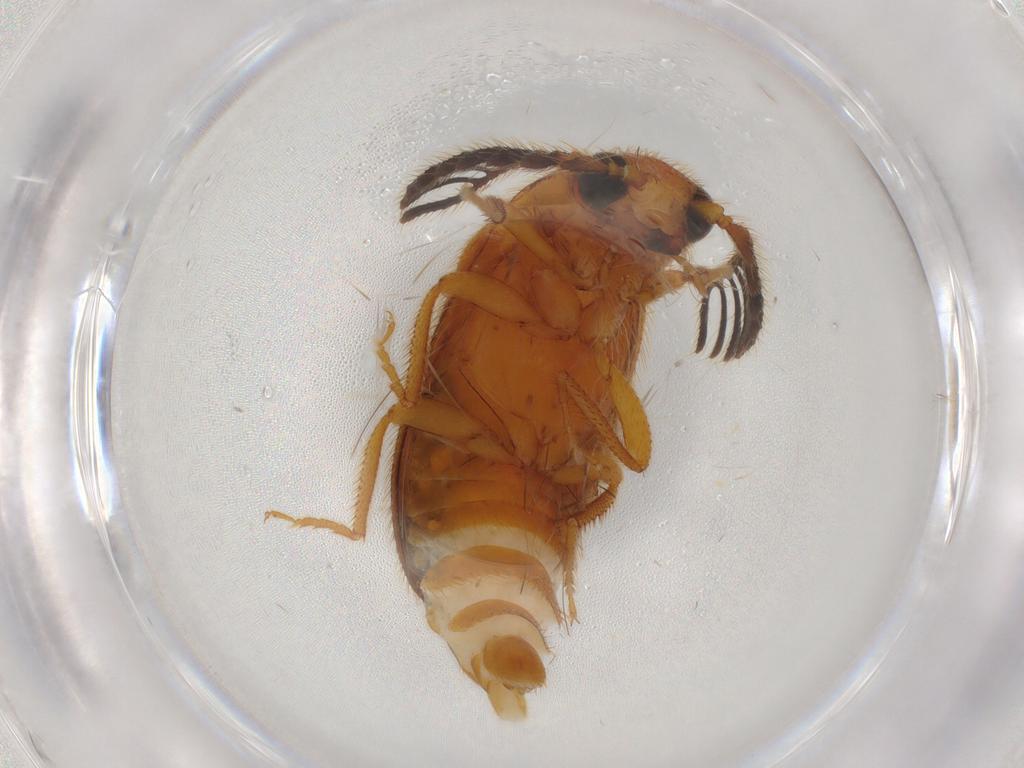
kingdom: Animalia
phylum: Arthropoda
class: Insecta
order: Coleoptera
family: Elateridae
